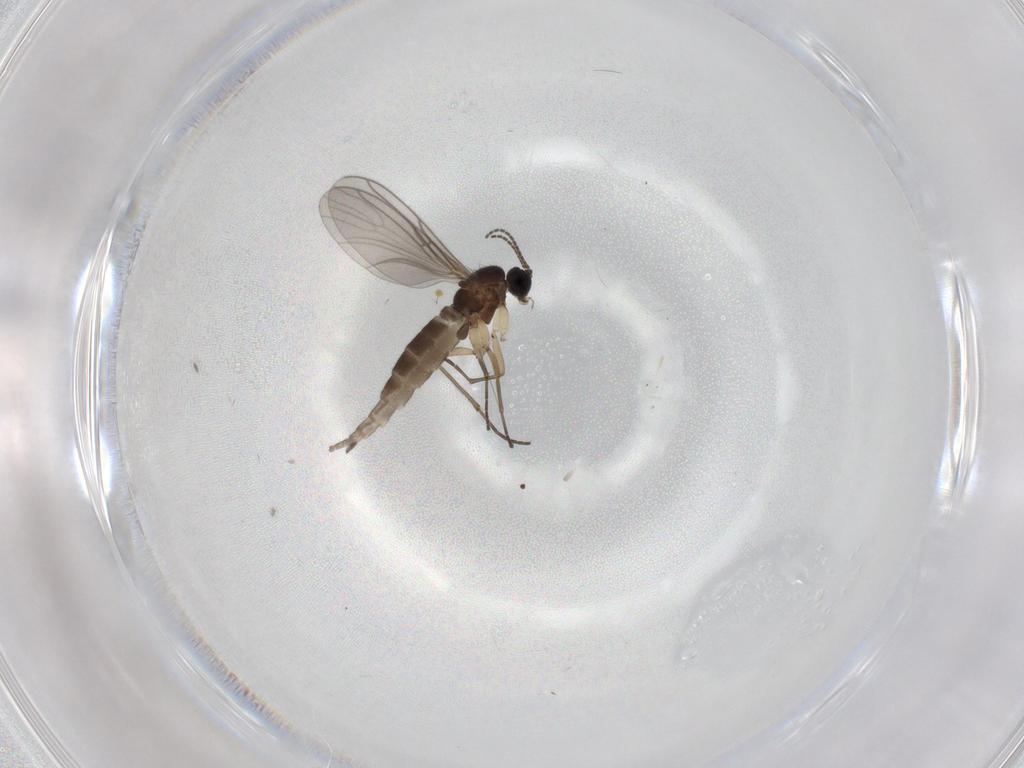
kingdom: Animalia
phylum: Arthropoda
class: Insecta
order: Diptera
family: Sciaridae
